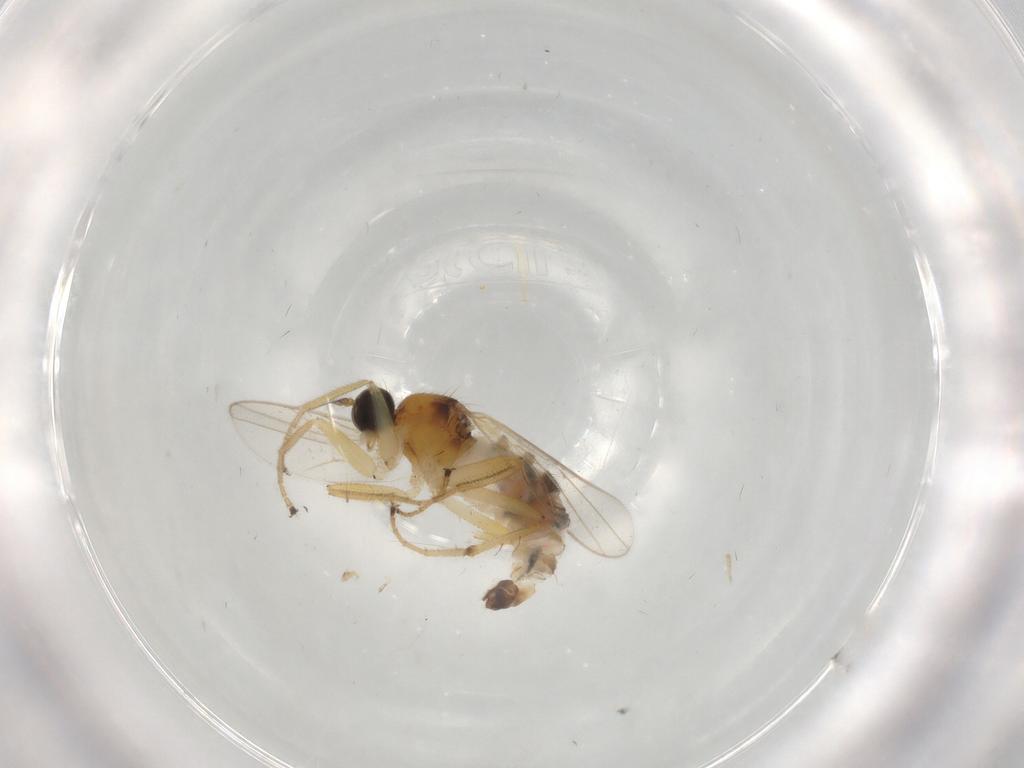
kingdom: Animalia
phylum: Arthropoda
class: Insecta
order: Diptera
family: Hybotidae
